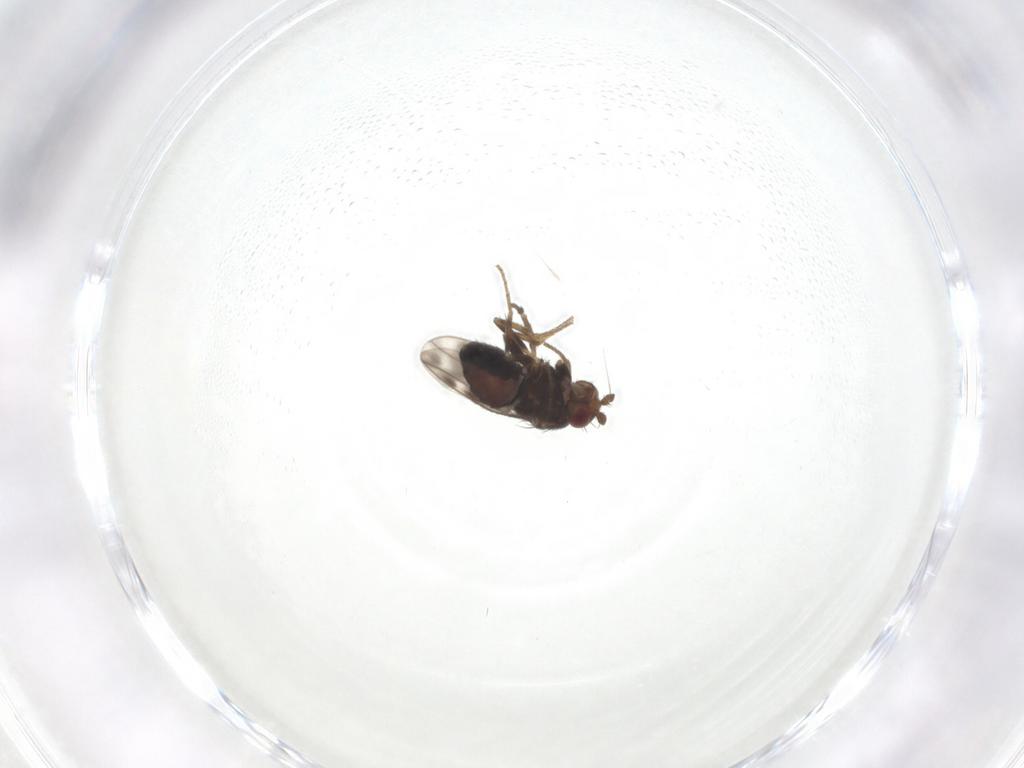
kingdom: Animalia
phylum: Arthropoda
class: Insecta
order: Diptera
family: Sphaeroceridae
